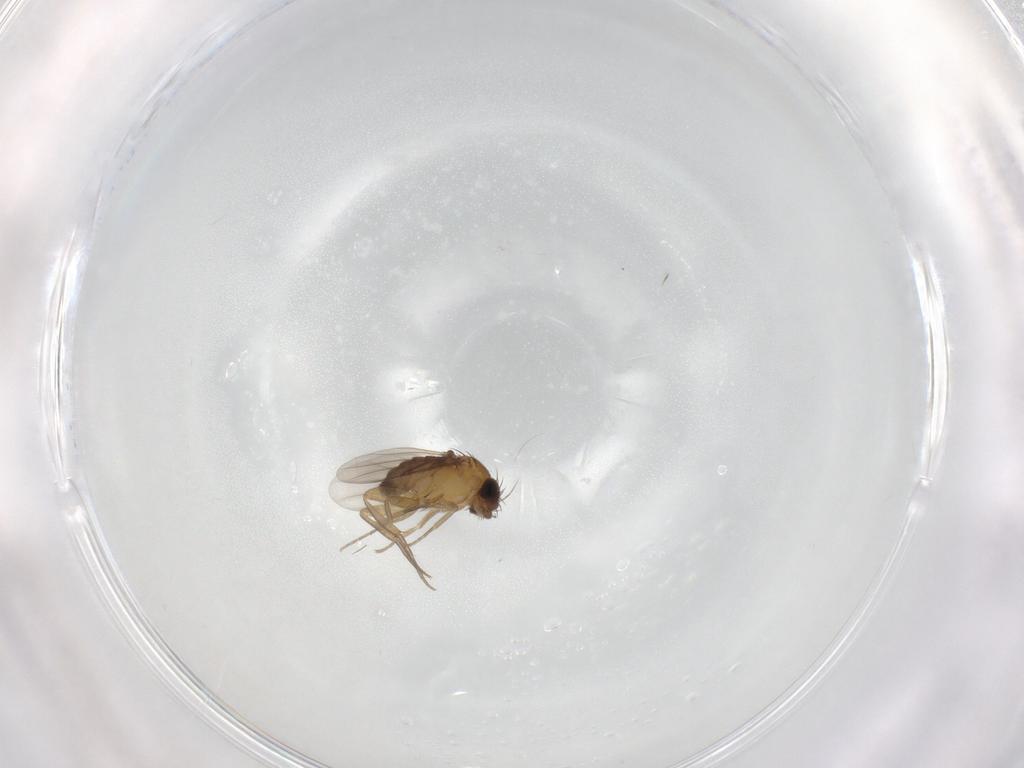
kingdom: Animalia
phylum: Arthropoda
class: Insecta
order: Diptera
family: Phoridae
